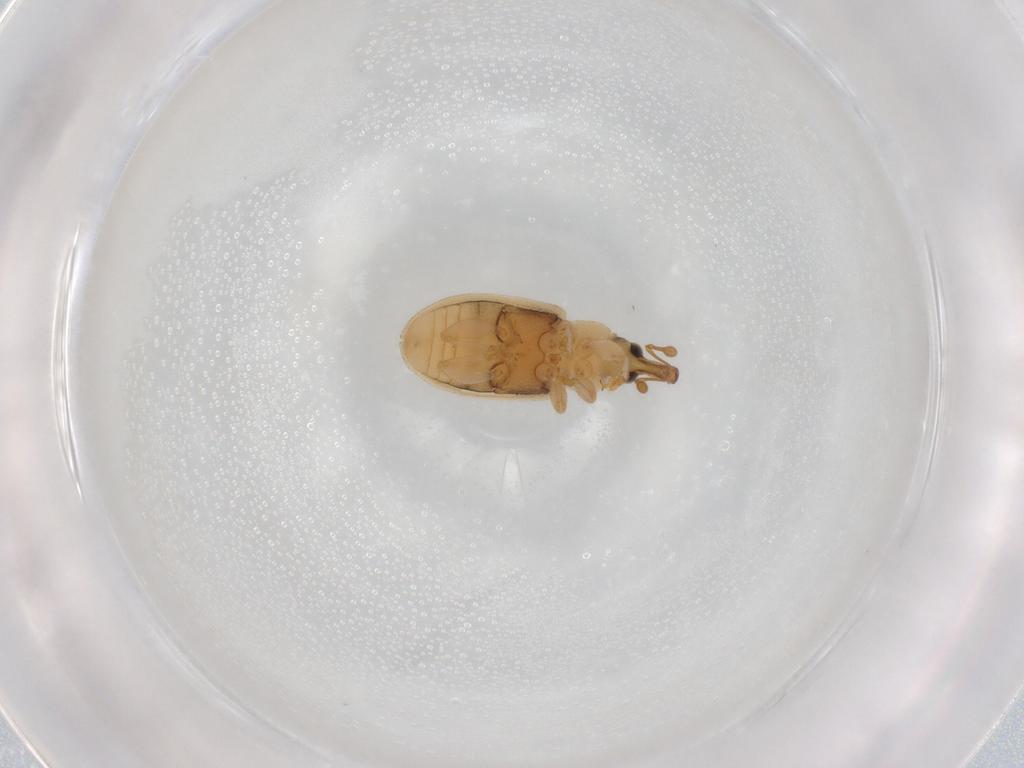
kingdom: Animalia
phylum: Arthropoda
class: Insecta
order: Coleoptera
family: Curculionidae
